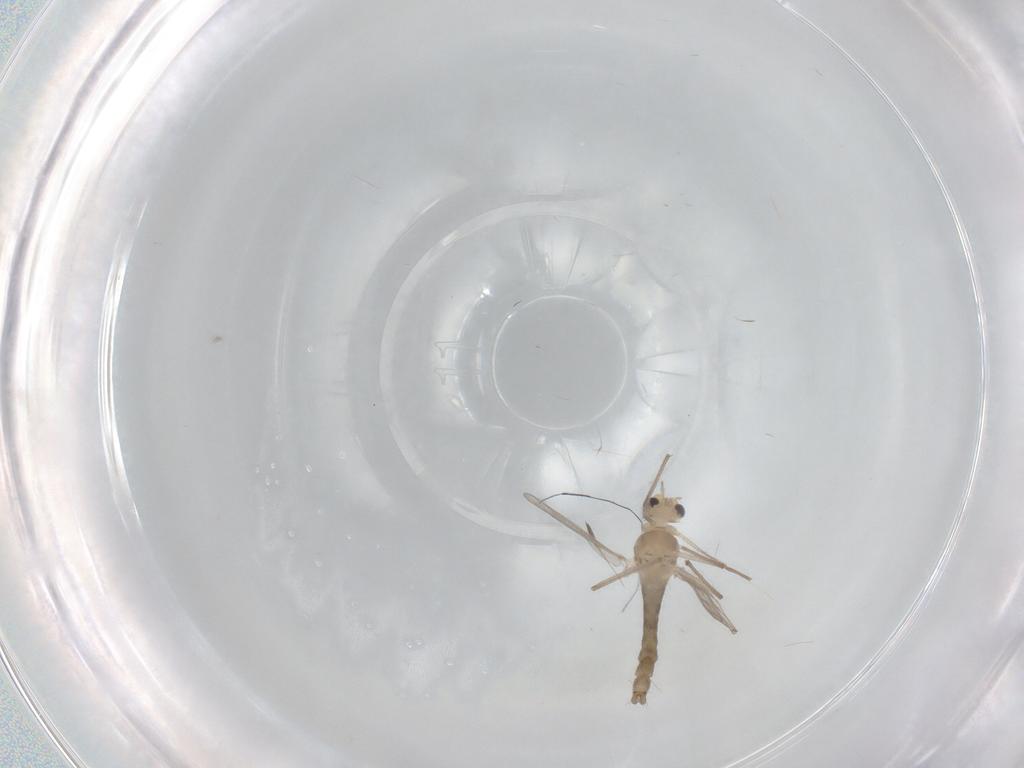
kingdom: Animalia
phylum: Arthropoda
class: Insecta
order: Diptera
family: Chironomidae
